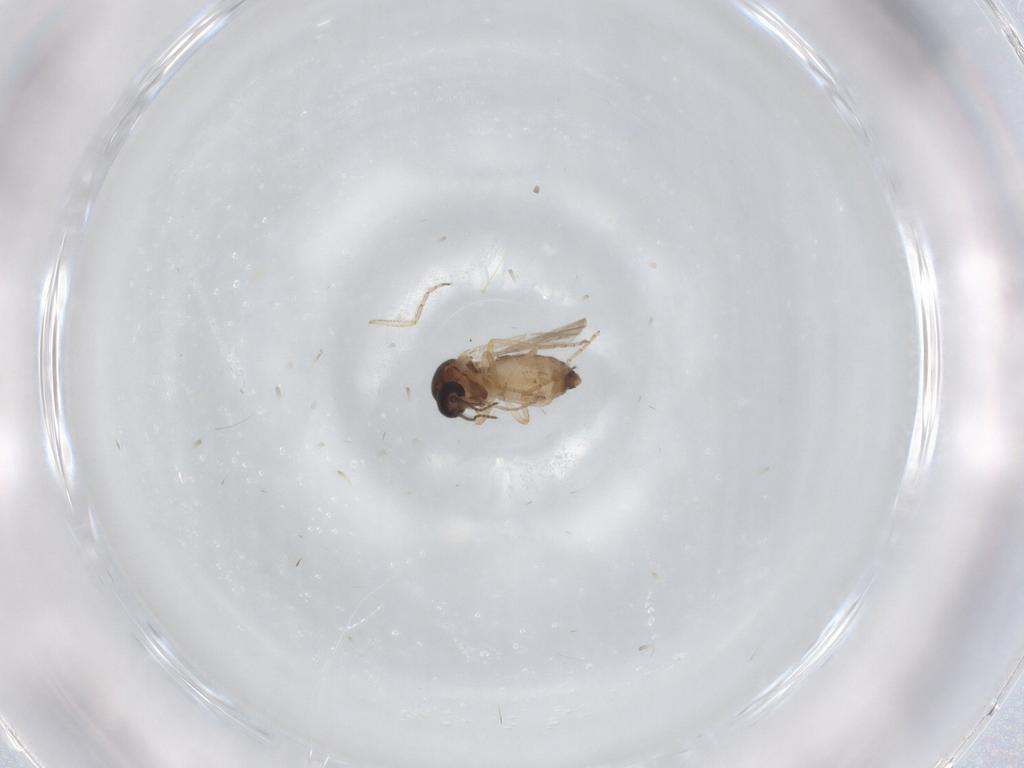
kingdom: Animalia
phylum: Arthropoda
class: Insecta
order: Diptera
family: Ceratopogonidae
